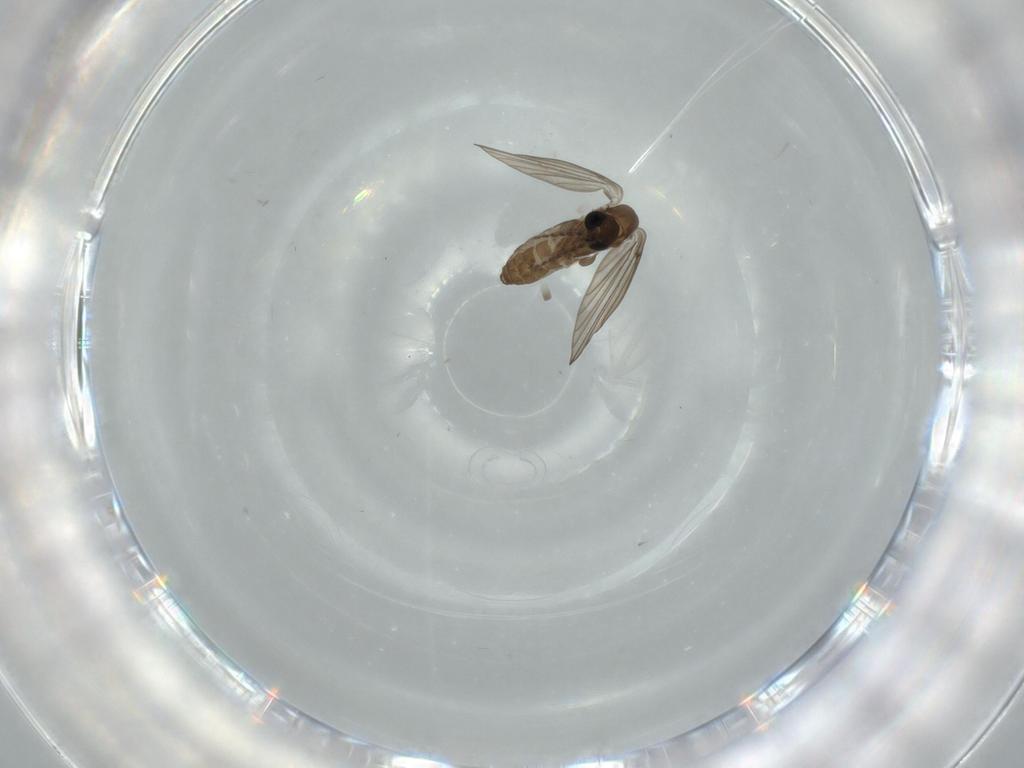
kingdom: Animalia
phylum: Arthropoda
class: Insecta
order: Diptera
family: Psychodidae
